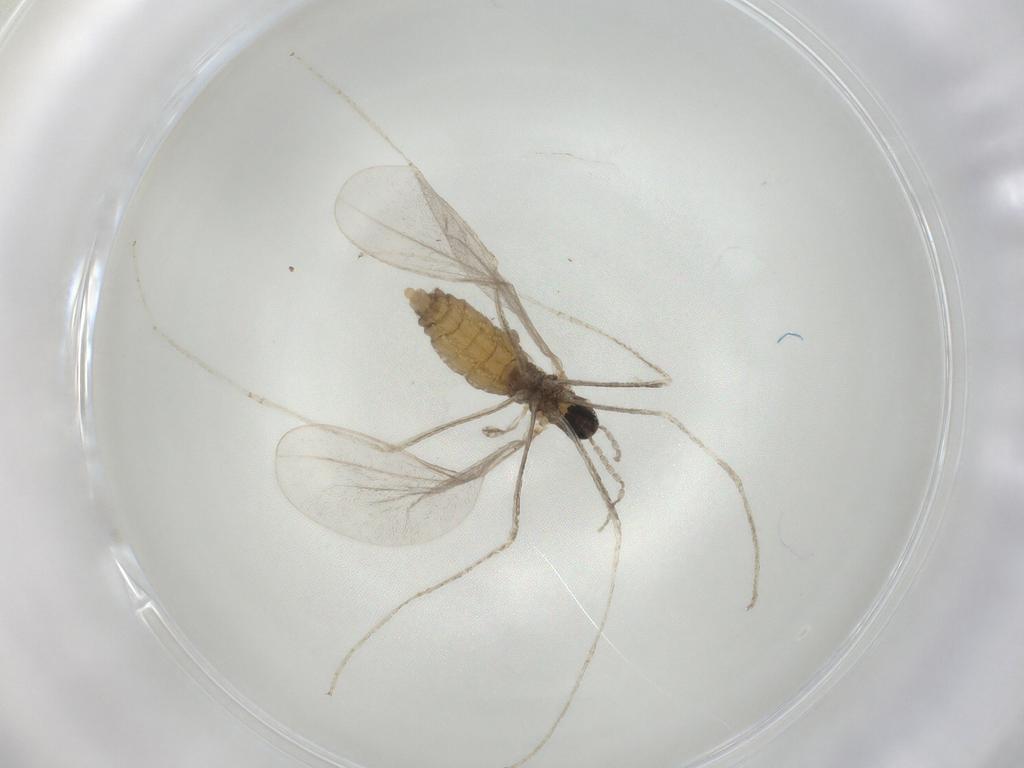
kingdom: Animalia
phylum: Arthropoda
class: Insecta
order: Diptera
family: Cecidomyiidae
